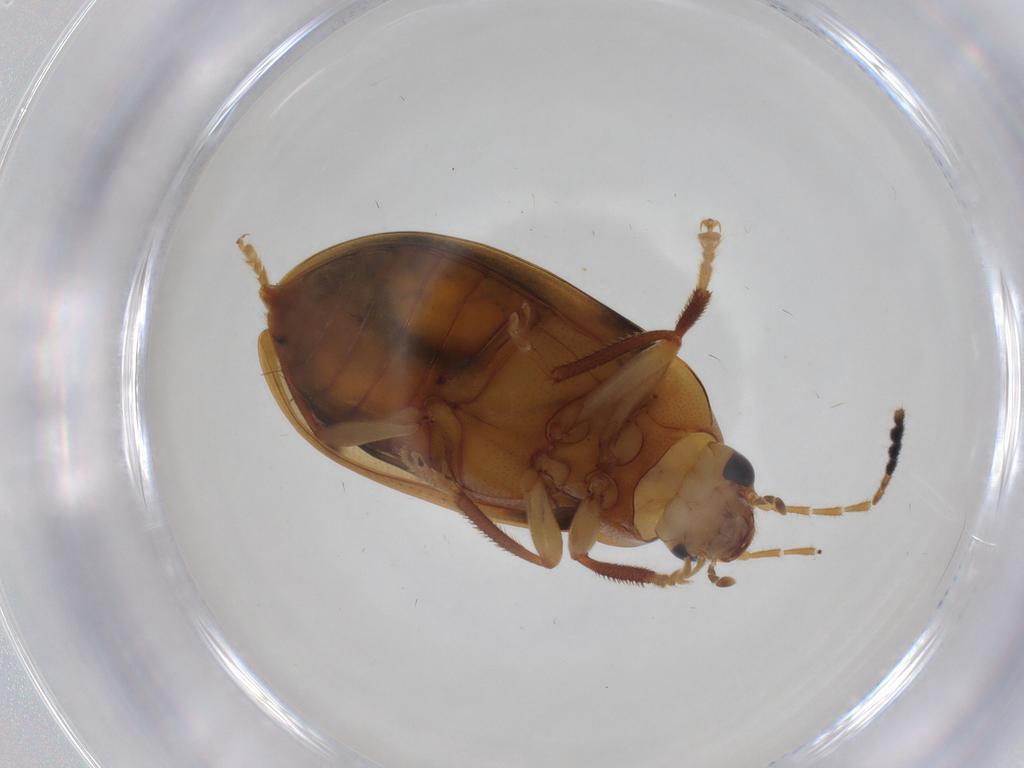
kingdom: Animalia
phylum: Arthropoda
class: Insecta
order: Coleoptera
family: Ptilodactylidae
